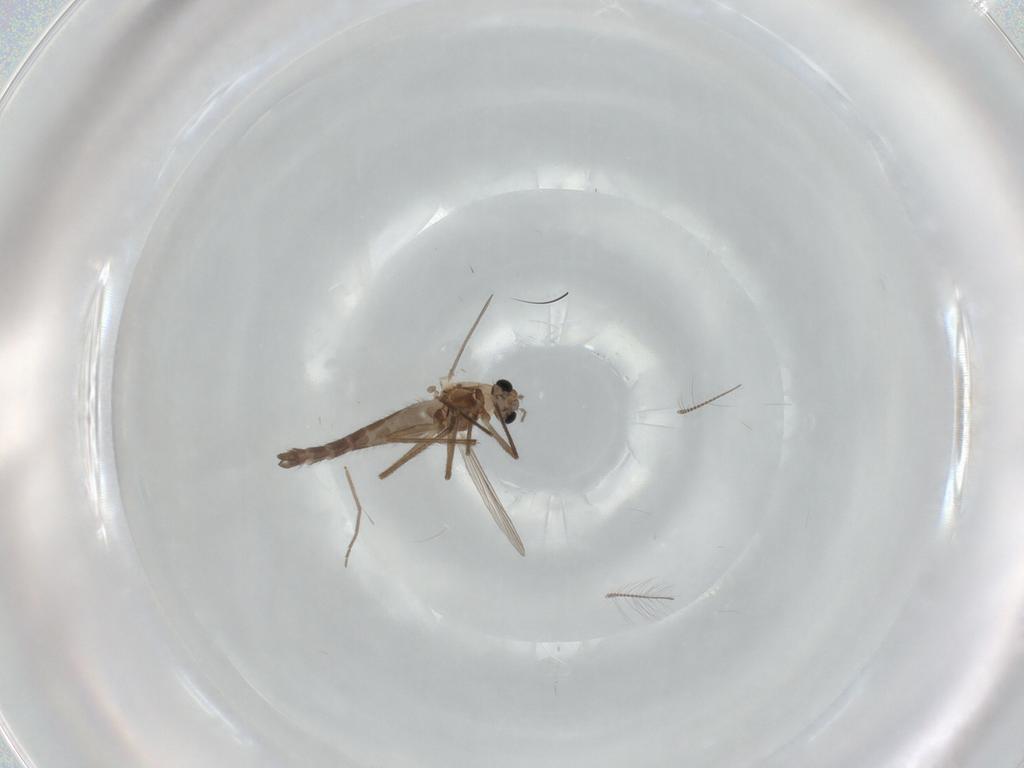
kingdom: Animalia
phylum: Arthropoda
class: Insecta
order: Diptera
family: Chironomidae
